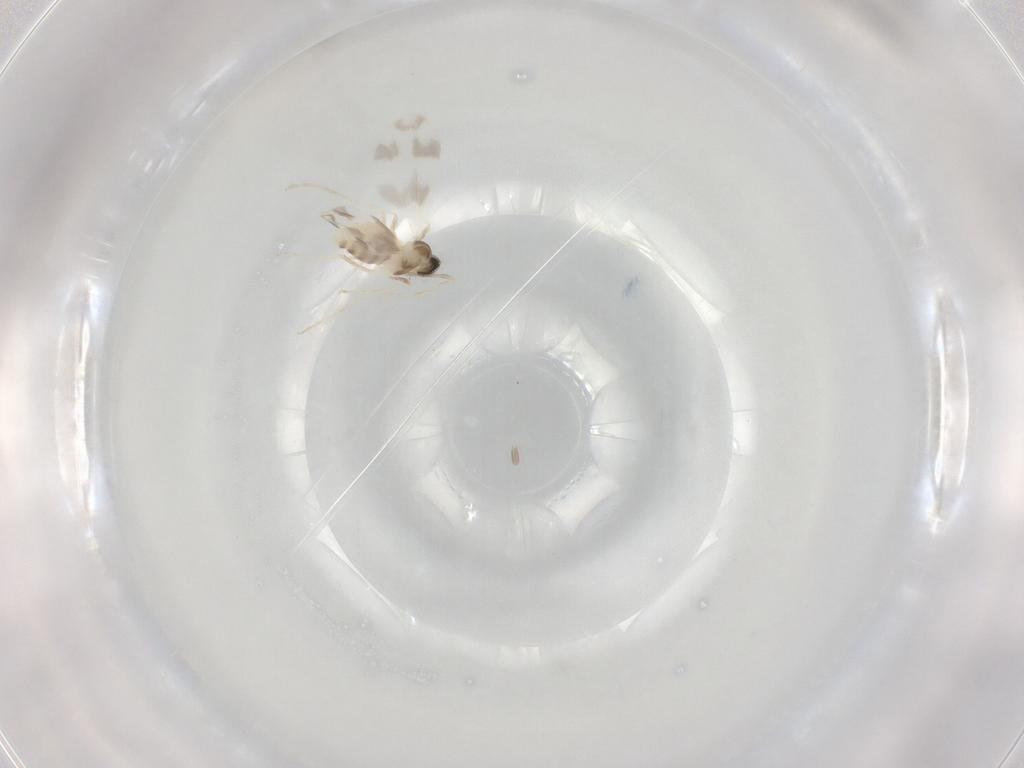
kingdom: Animalia
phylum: Arthropoda
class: Insecta
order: Diptera
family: Cecidomyiidae
